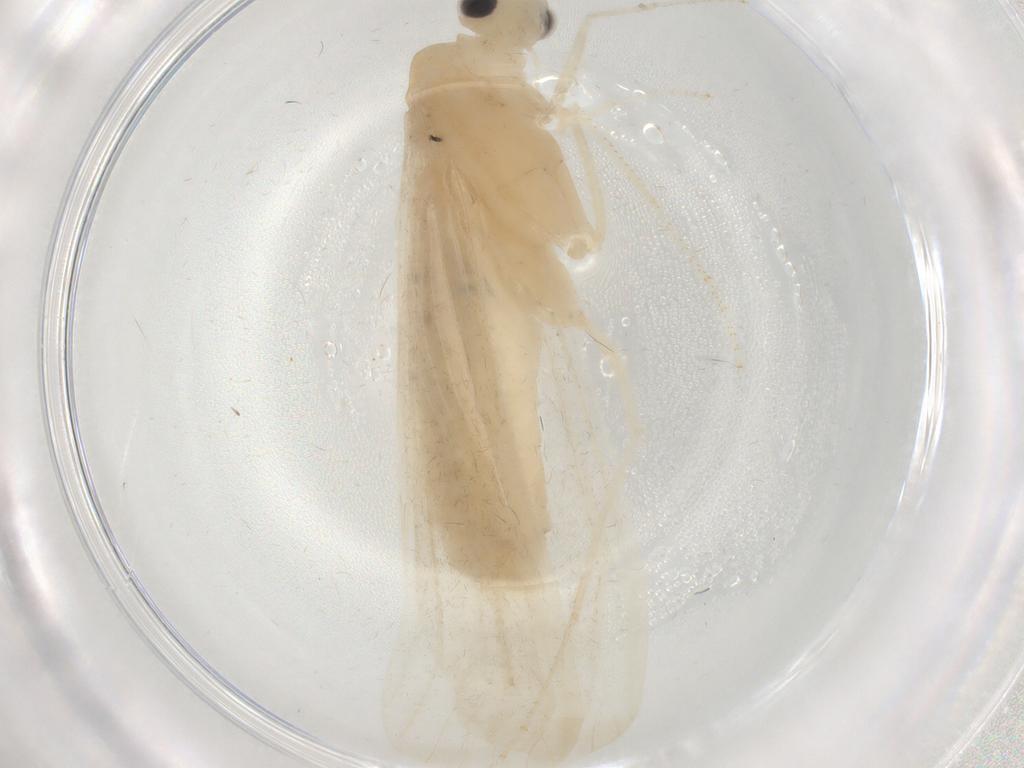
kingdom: Animalia
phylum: Arthropoda
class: Insecta
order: Trichoptera
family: Leptoceridae
